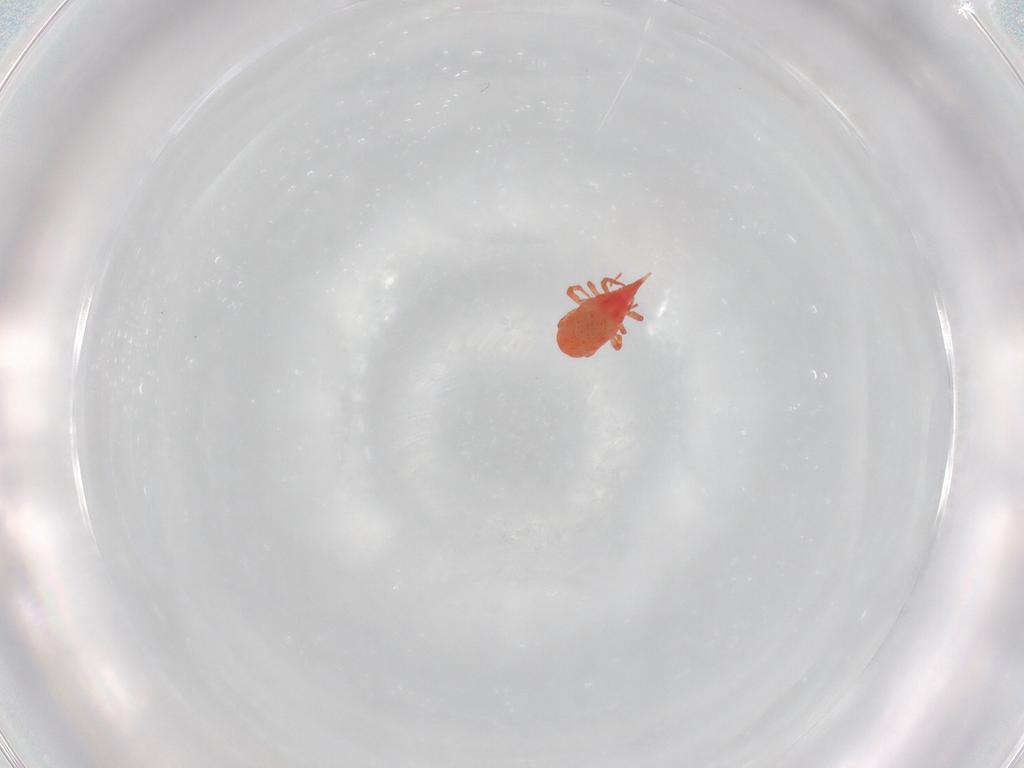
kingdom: Animalia
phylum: Arthropoda
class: Arachnida
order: Trombidiformes
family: Bdellidae
